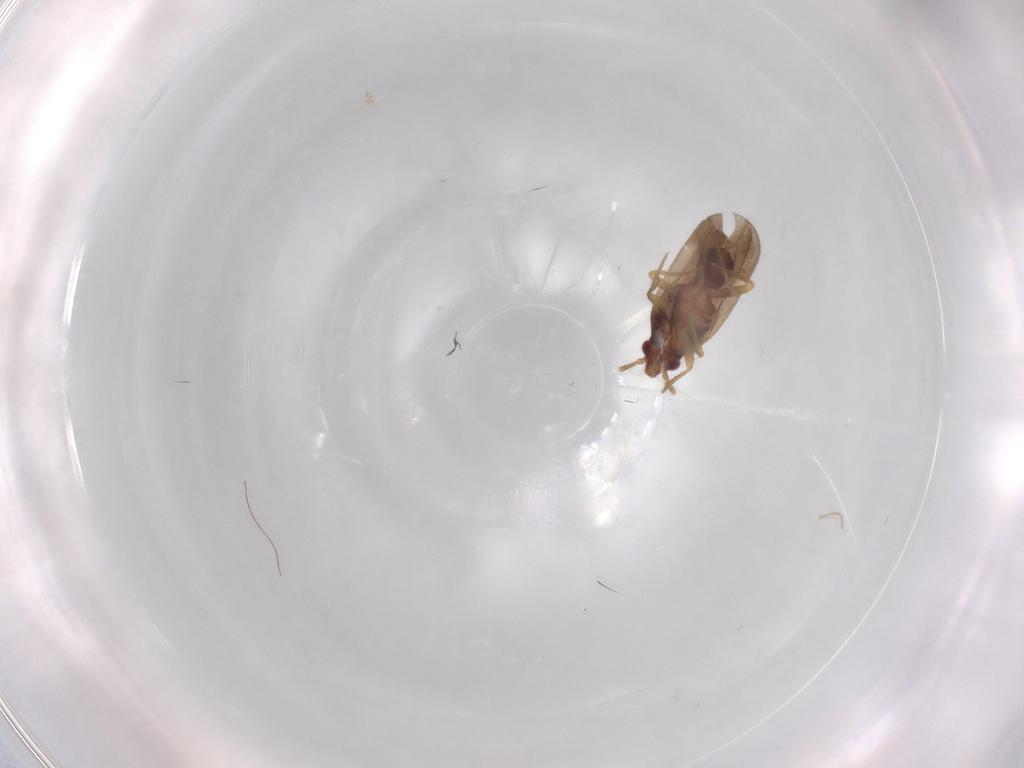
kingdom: Animalia
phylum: Arthropoda
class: Insecta
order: Hemiptera
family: Ceratocombidae
